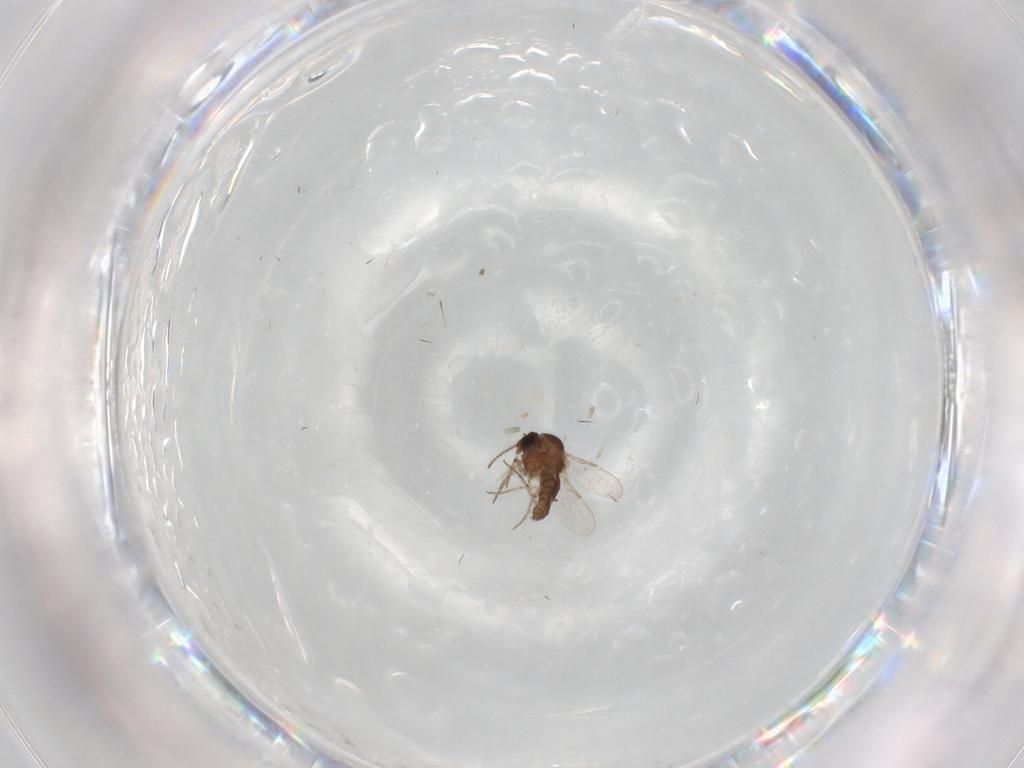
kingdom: Animalia
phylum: Arthropoda
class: Insecta
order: Diptera
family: Ceratopogonidae
